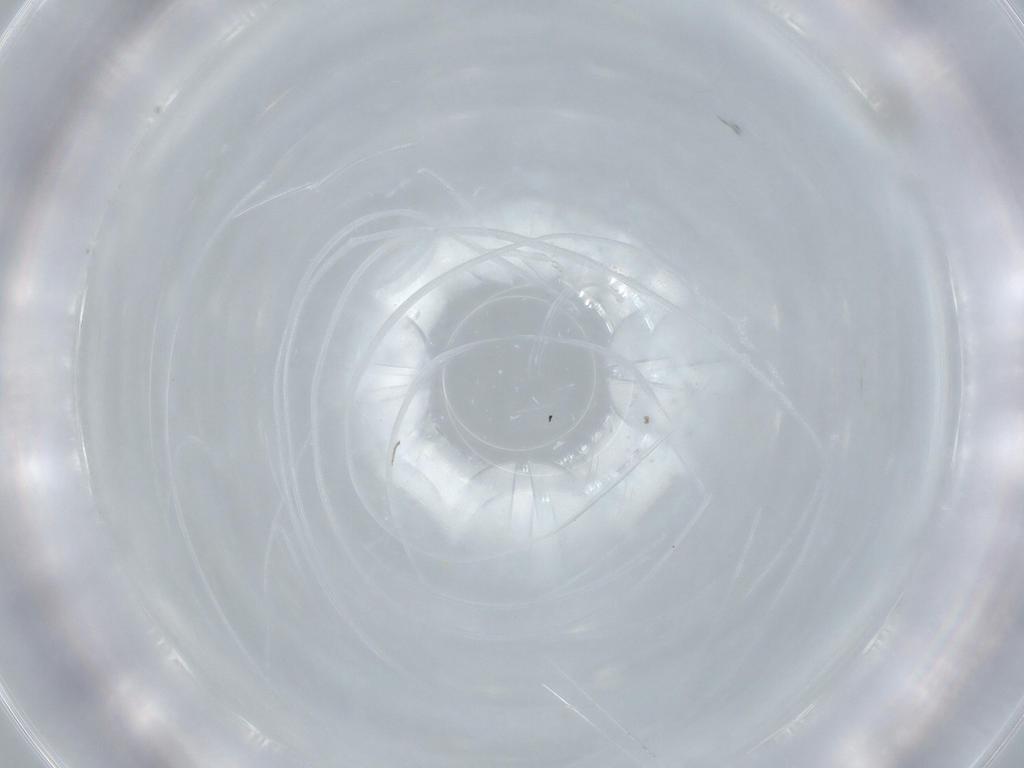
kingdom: Animalia
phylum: Arthropoda
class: Insecta
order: Diptera
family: Cecidomyiidae
